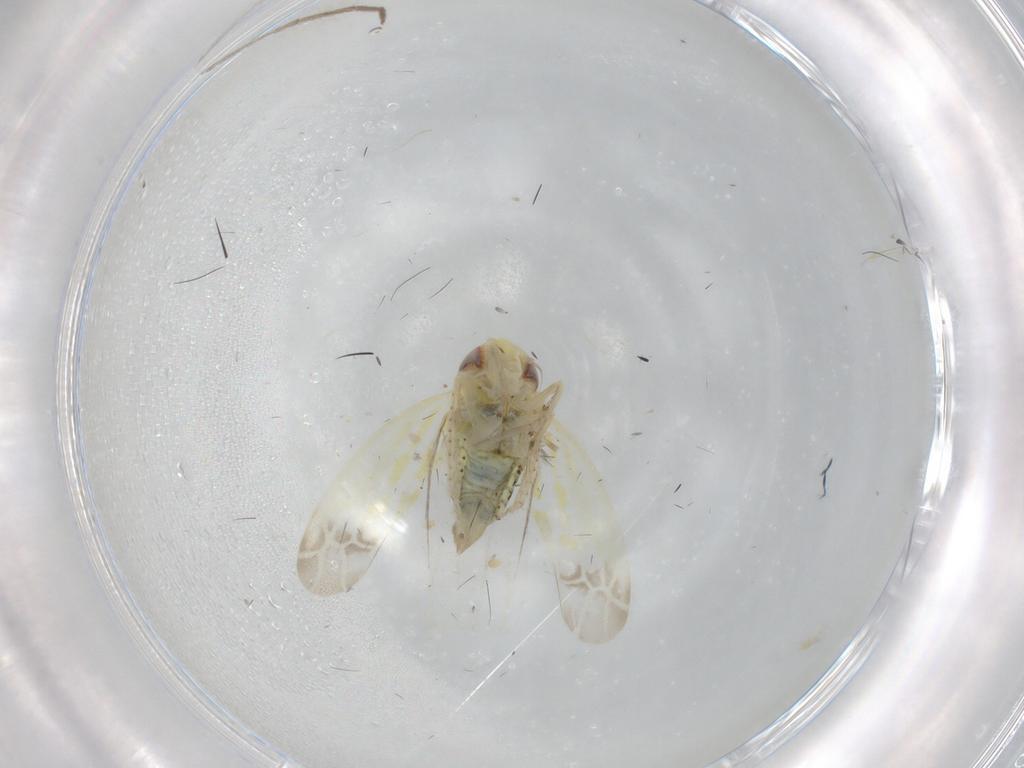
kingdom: Animalia
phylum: Arthropoda
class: Insecta
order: Hemiptera
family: Cicadellidae
